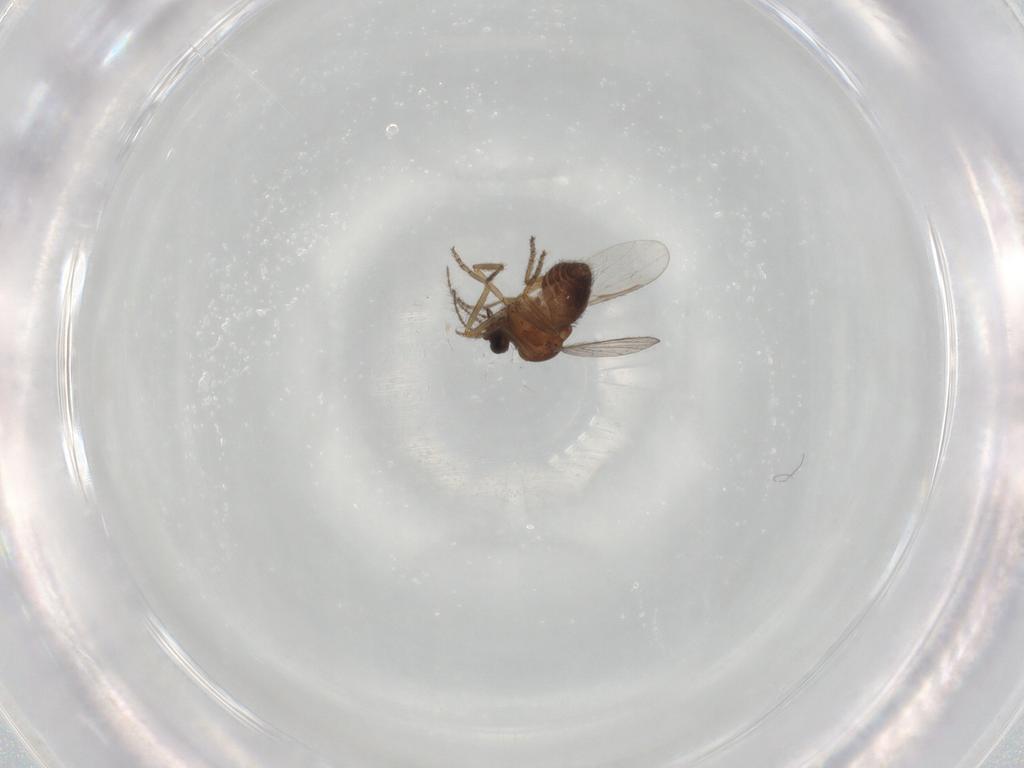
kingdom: Animalia
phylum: Arthropoda
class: Insecta
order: Diptera
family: Ceratopogonidae
